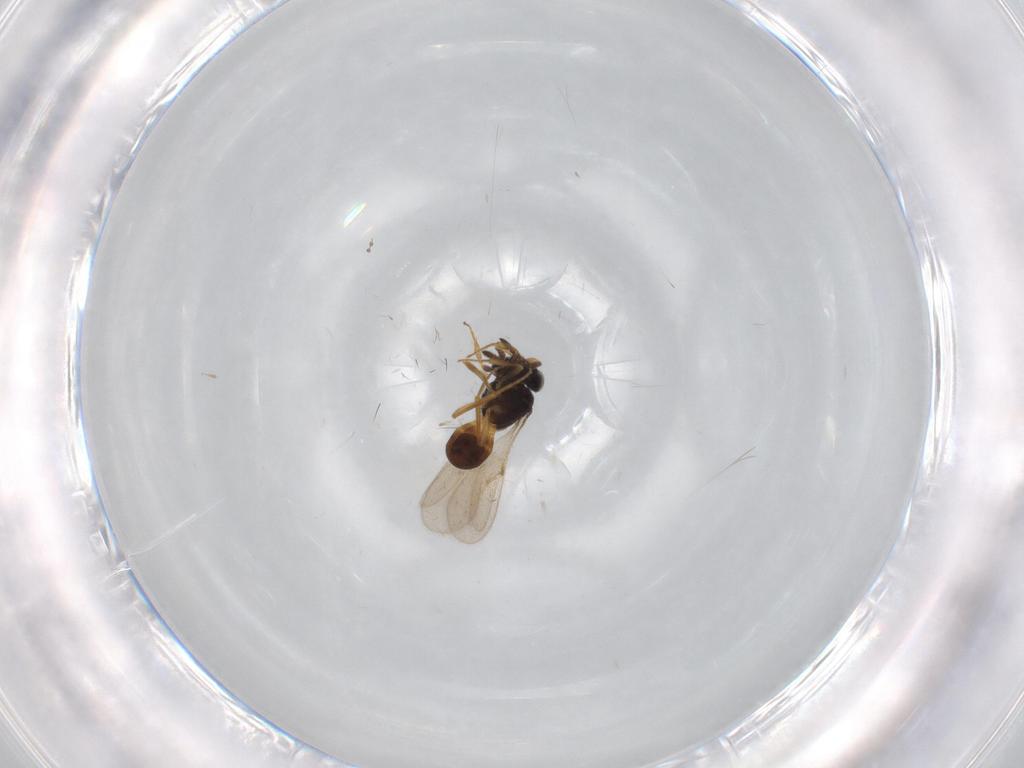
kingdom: Animalia
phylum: Arthropoda
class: Insecta
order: Hymenoptera
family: Scelionidae
